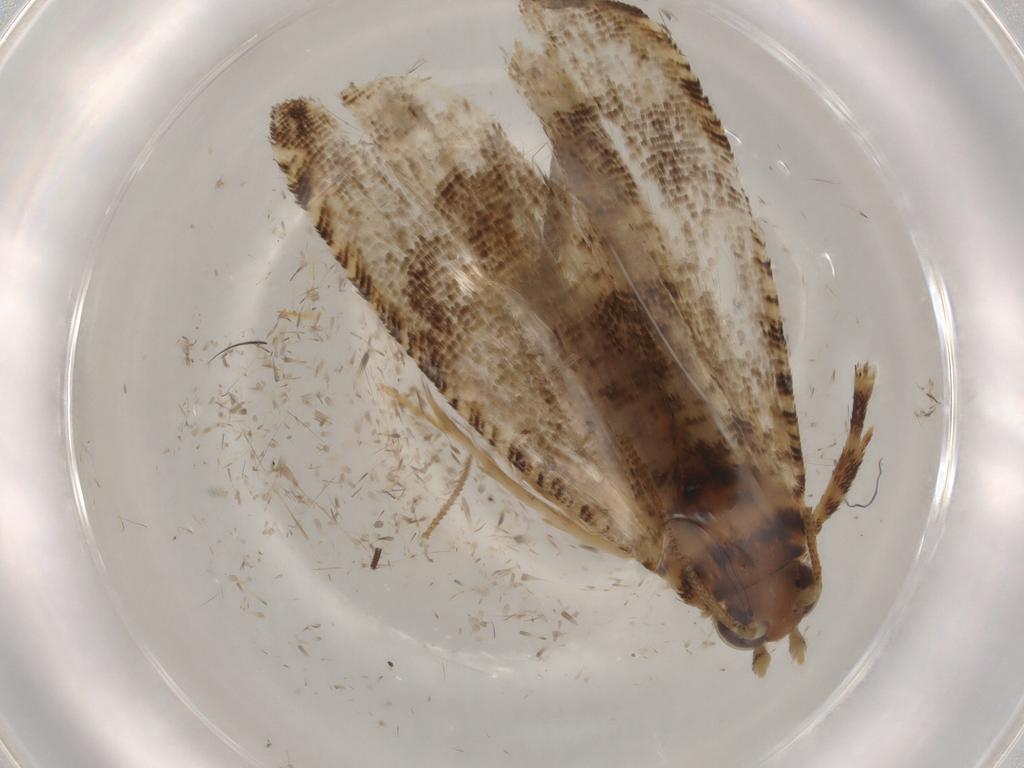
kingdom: Animalia
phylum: Arthropoda
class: Insecta
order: Lepidoptera
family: Tortricidae
